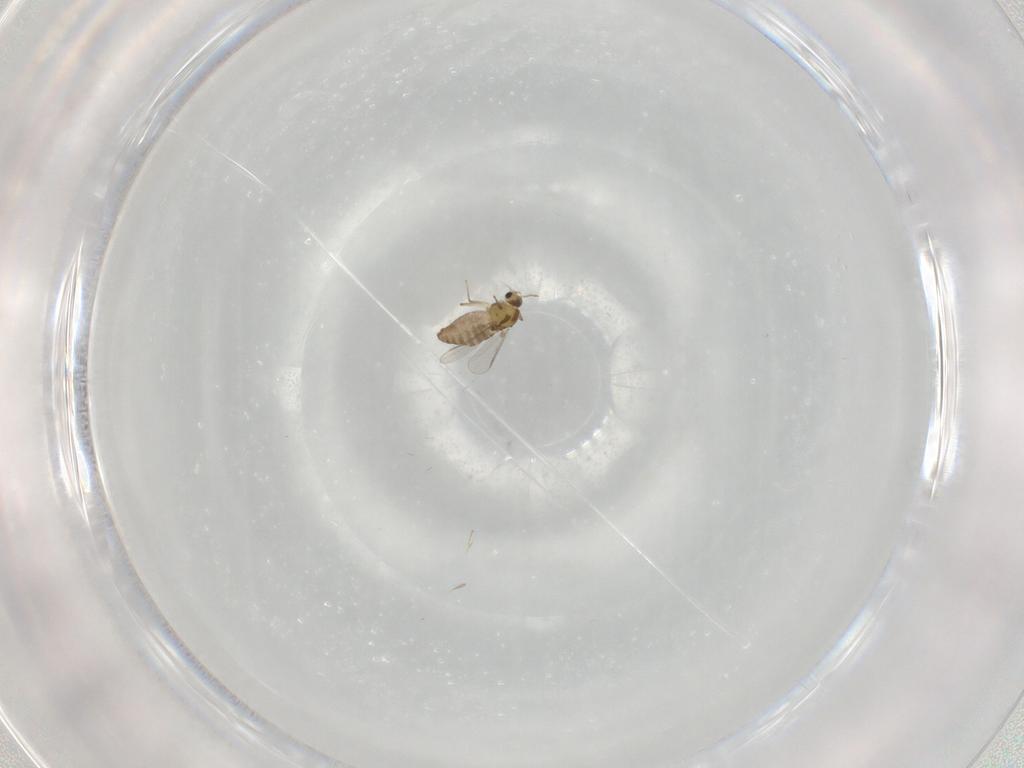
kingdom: Animalia
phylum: Arthropoda
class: Insecta
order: Diptera
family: Chironomidae
